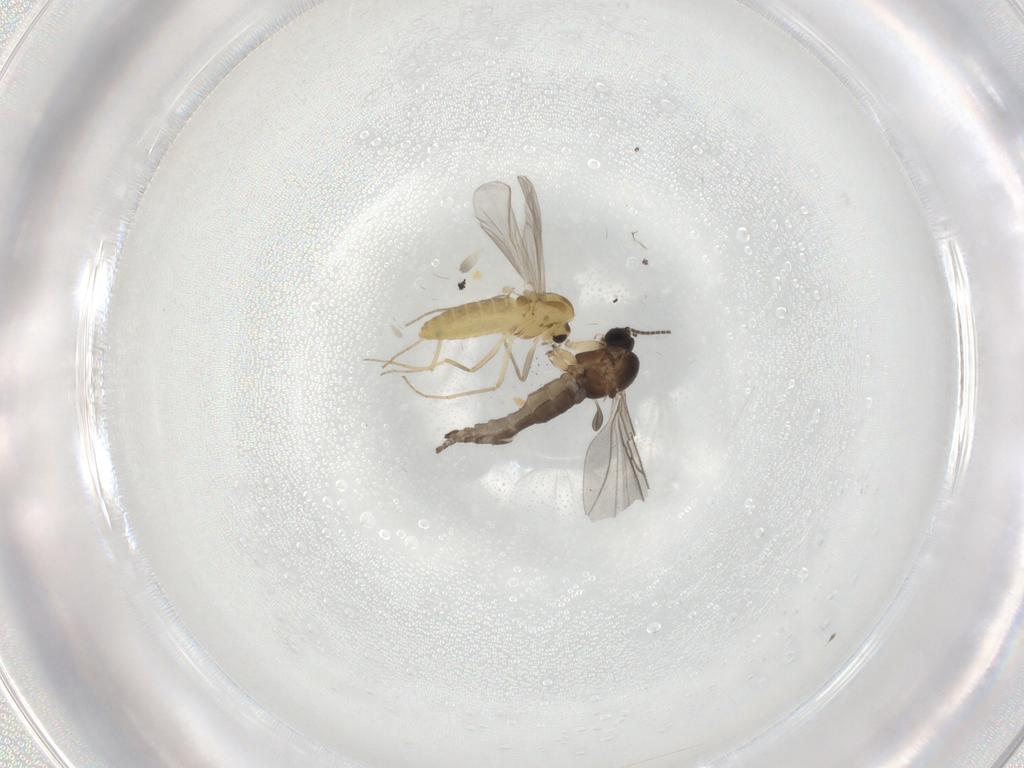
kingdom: Animalia
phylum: Arthropoda
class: Insecta
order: Diptera
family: Chironomidae
